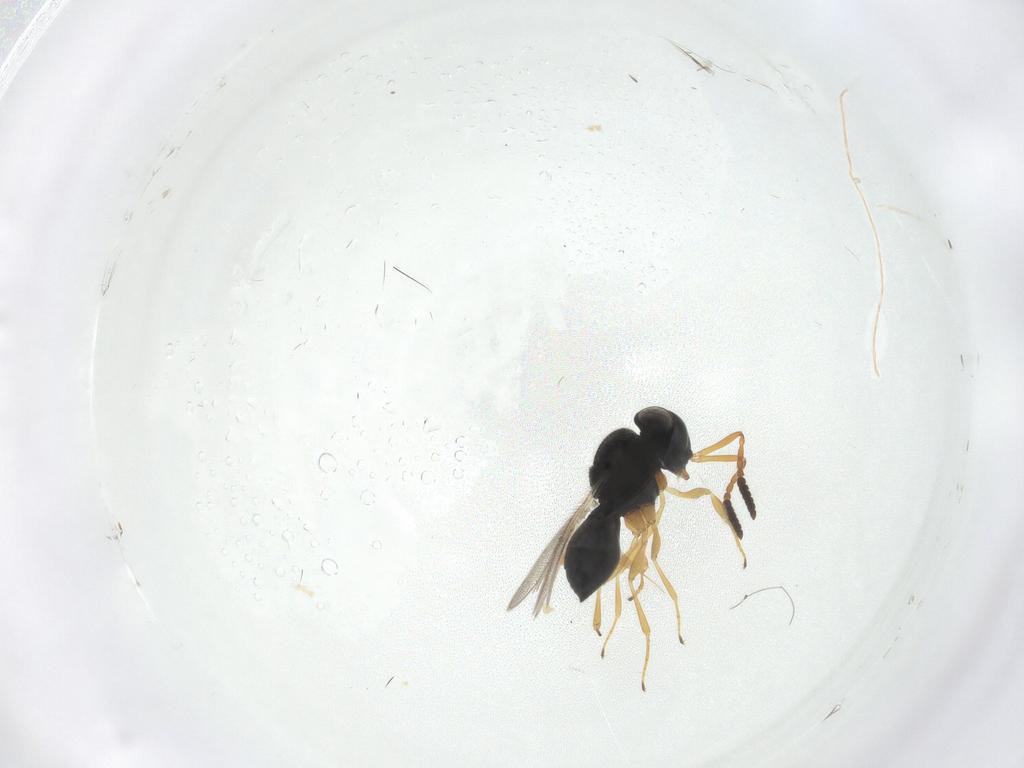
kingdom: Animalia
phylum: Arthropoda
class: Insecta
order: Hymenoptera
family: Scelionidae
